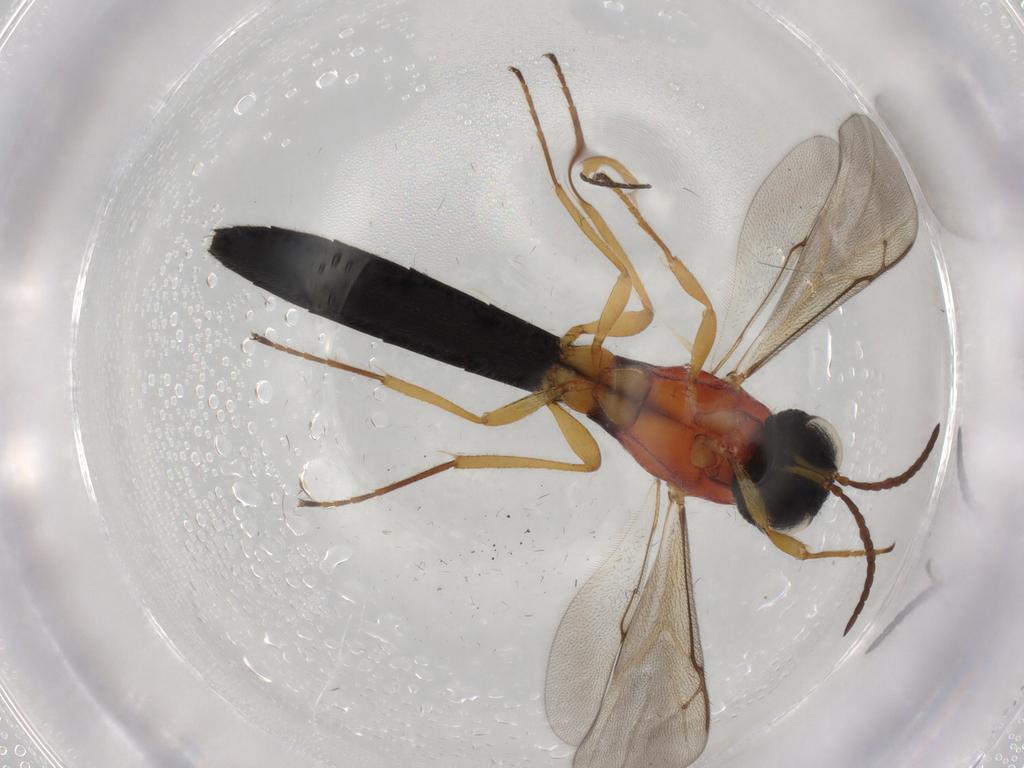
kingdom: Animalia
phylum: Arthropoda
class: Insecta
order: Hymenoptera
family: Scelionidae
